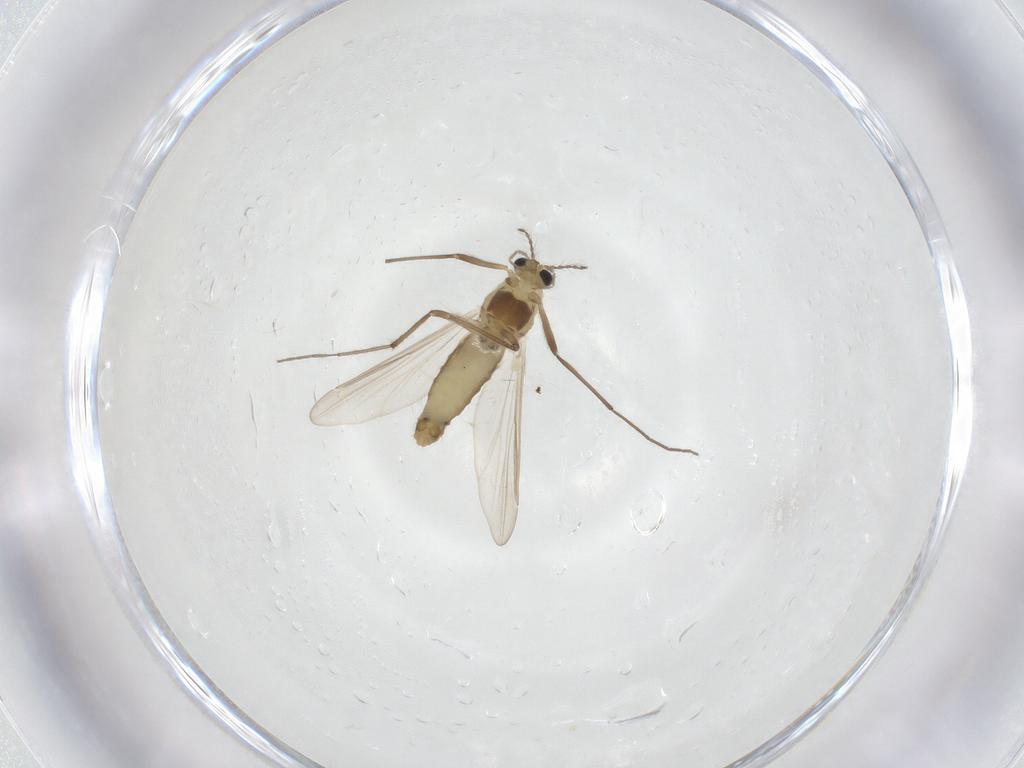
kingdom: Animalia
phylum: Arthropoda
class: Insecta
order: Diptera
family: Chironomidae
